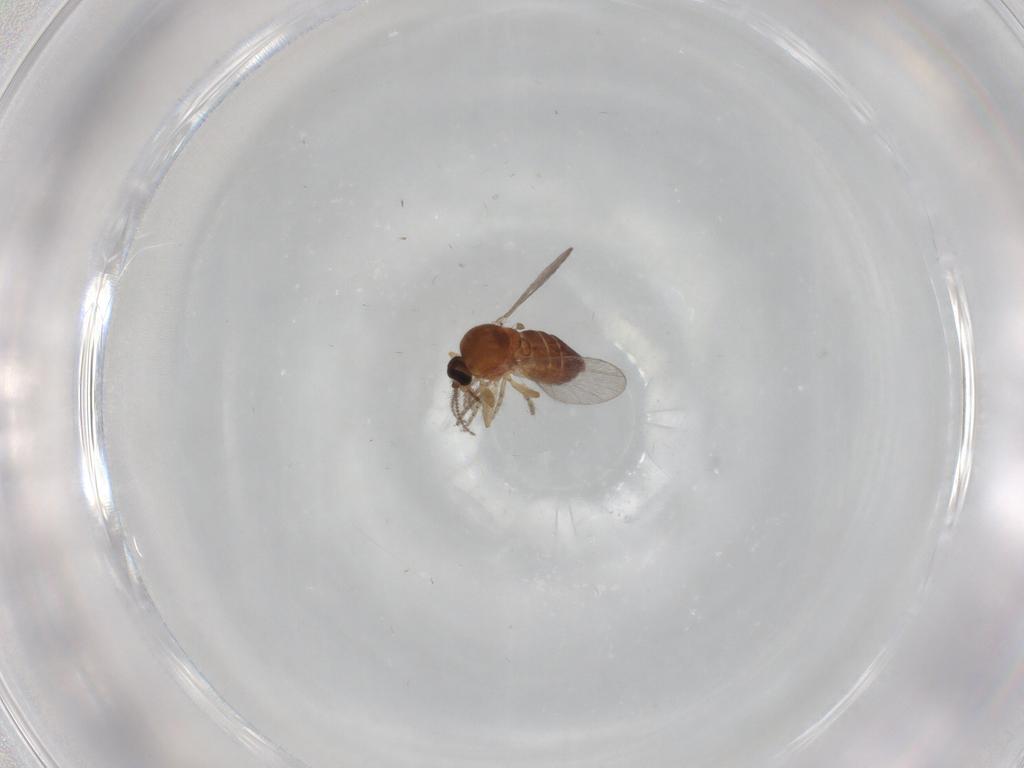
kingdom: Animalia
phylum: Arthropoda
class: Insecta
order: Diptera
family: Ceratopogonidae
